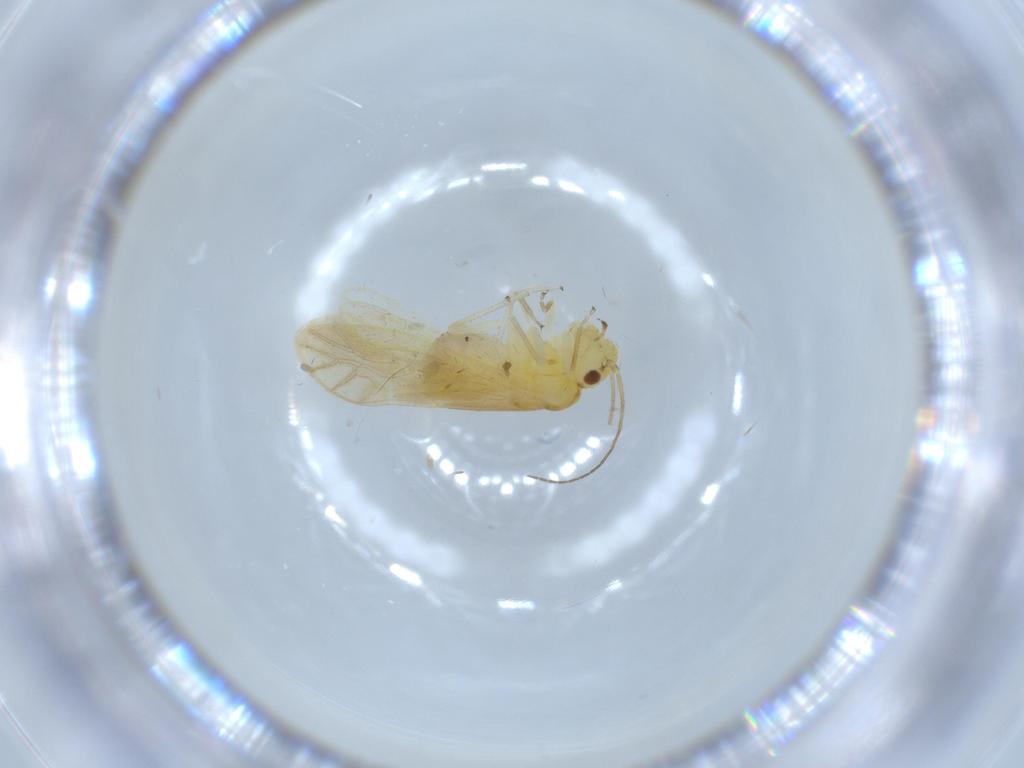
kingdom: Animalia
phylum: Arthropoda
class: Insecta
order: Psocodea
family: Caeciliusidae
